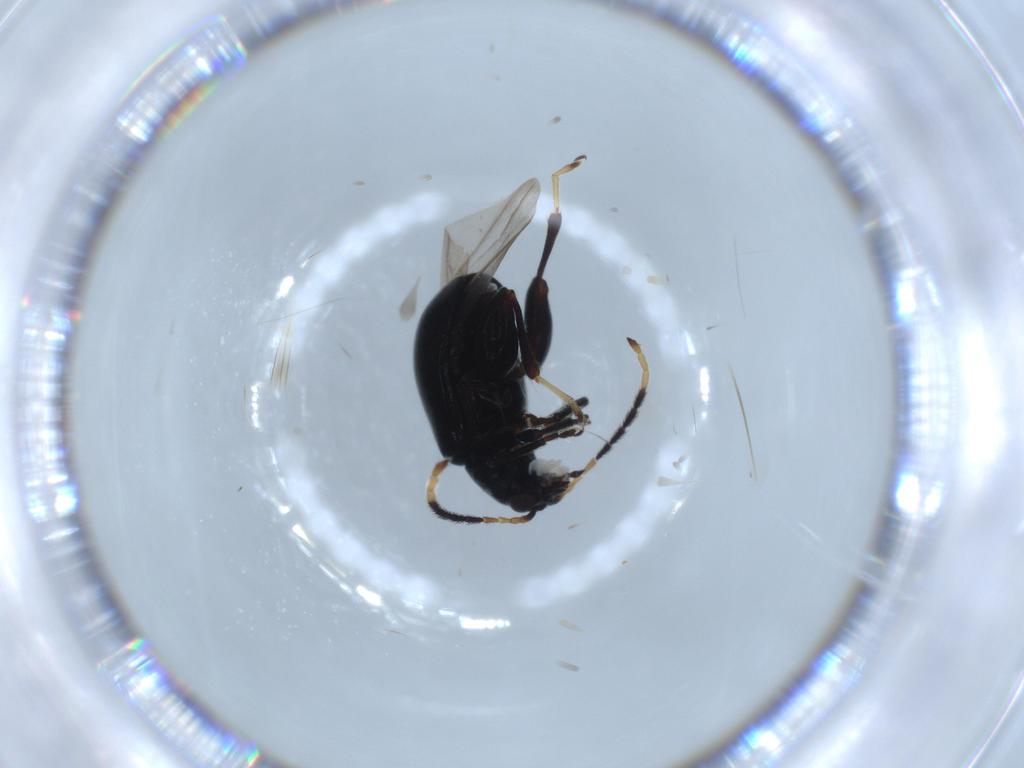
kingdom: Animalia
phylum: Arthropoda
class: Insecta
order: Coleoptera
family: Chrysomelidae
